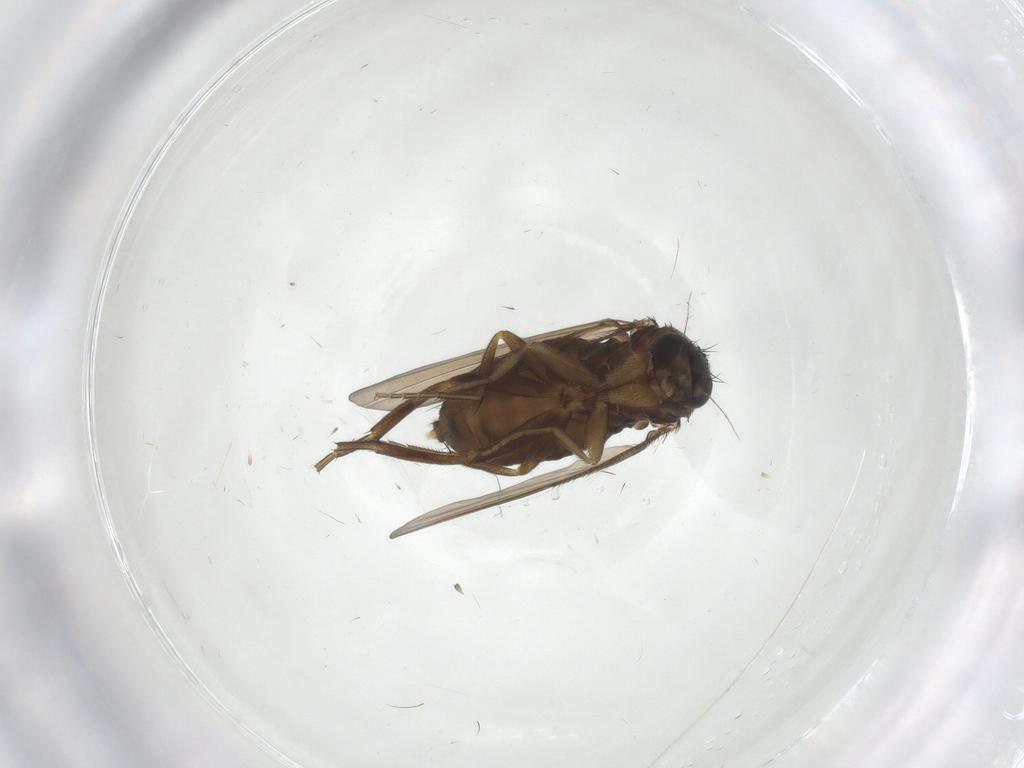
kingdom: Animalia
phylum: Arthropoda
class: Insecta
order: Diptera
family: Phoridae
